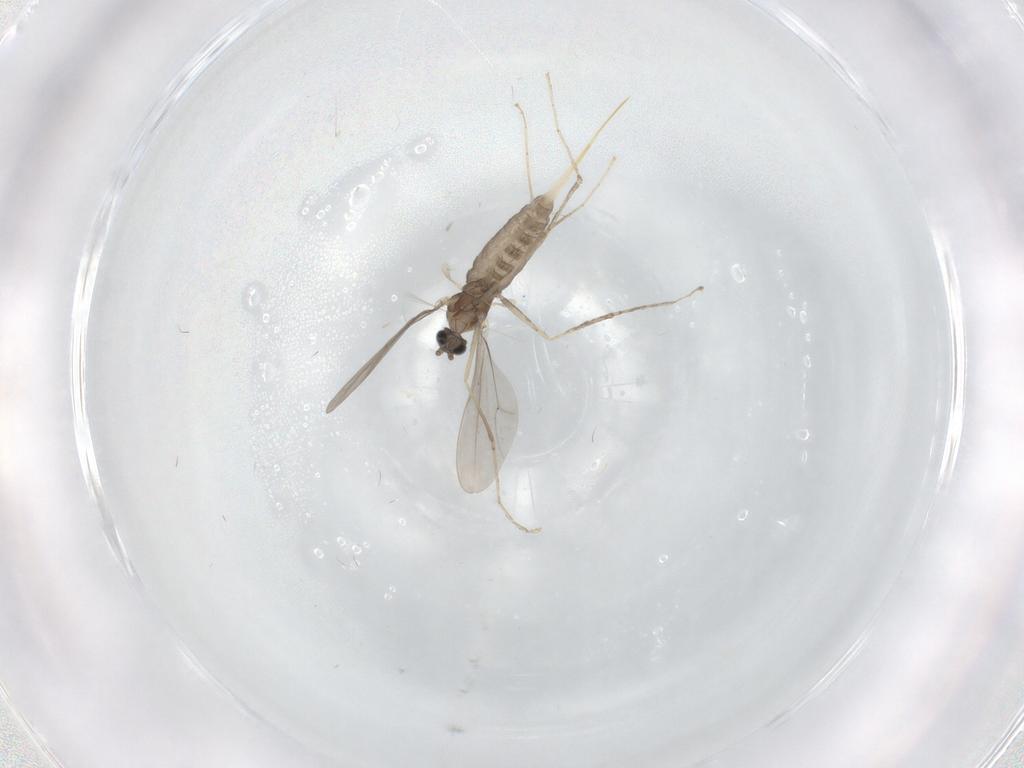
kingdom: Animalia
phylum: Arthropoda
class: Insecta
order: Diptera
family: Cecidomyiidae
